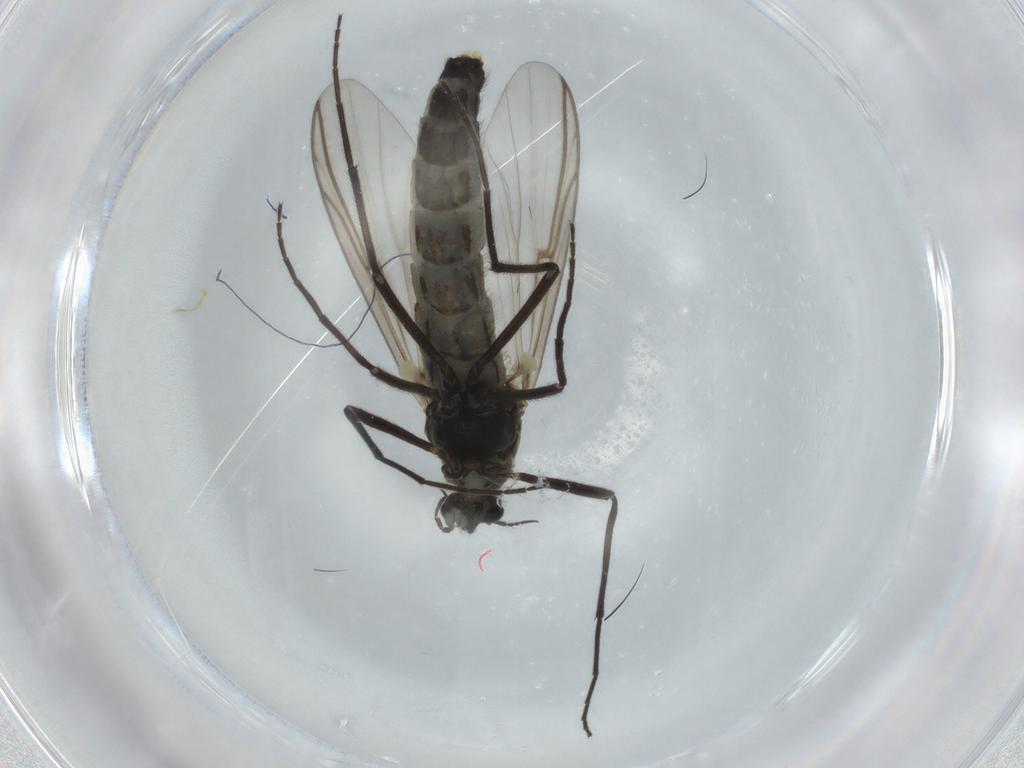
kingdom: Animalia
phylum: Arthropoda
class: Insecta
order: Diptera
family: Chironomidae
